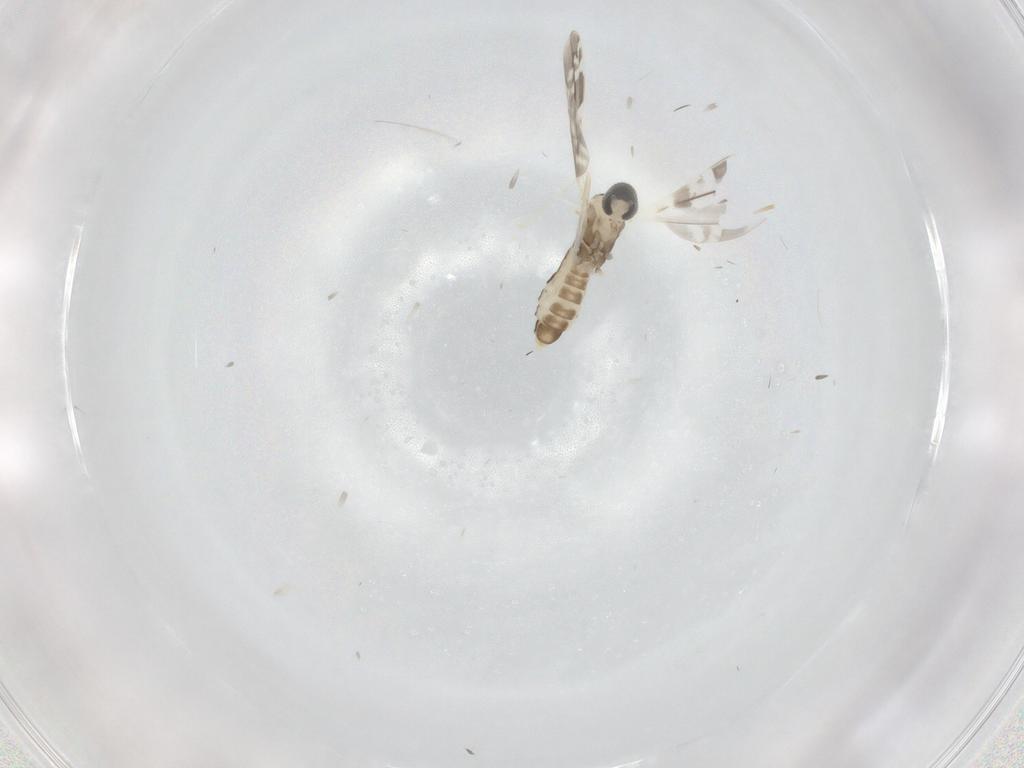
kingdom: Animalia
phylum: Arthropoda
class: Insecta
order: Diptera
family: Cecidomyiidae
